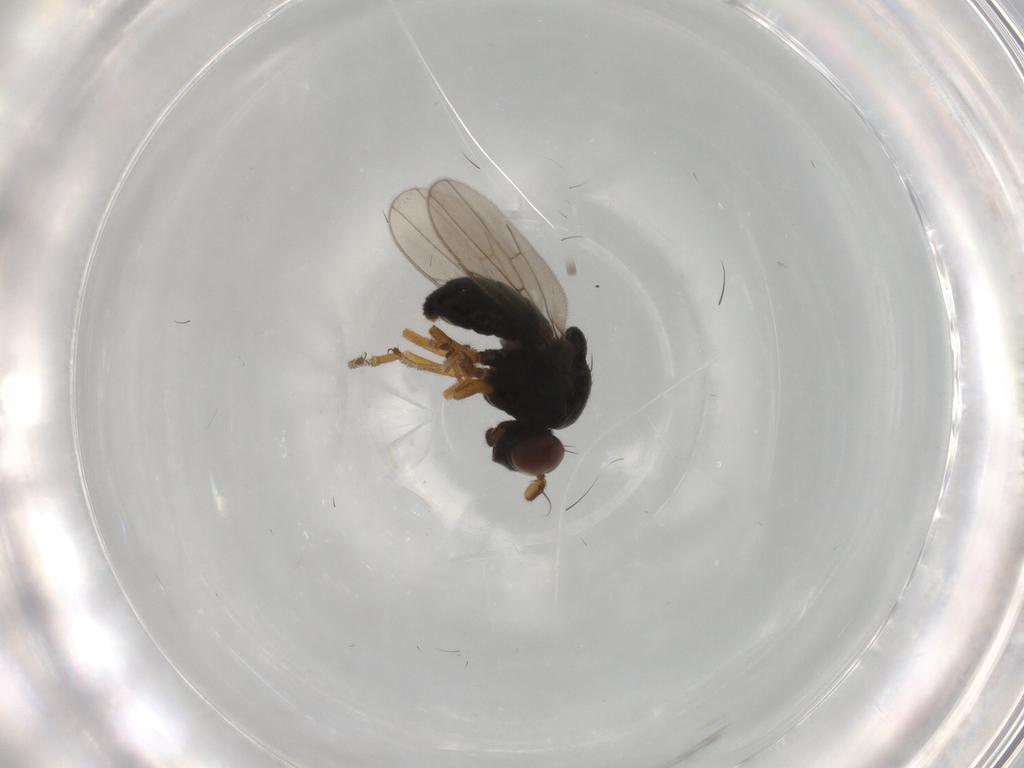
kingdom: Animalia
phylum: Arthropoda
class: Insecta
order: Diptera
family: Ephydridae
